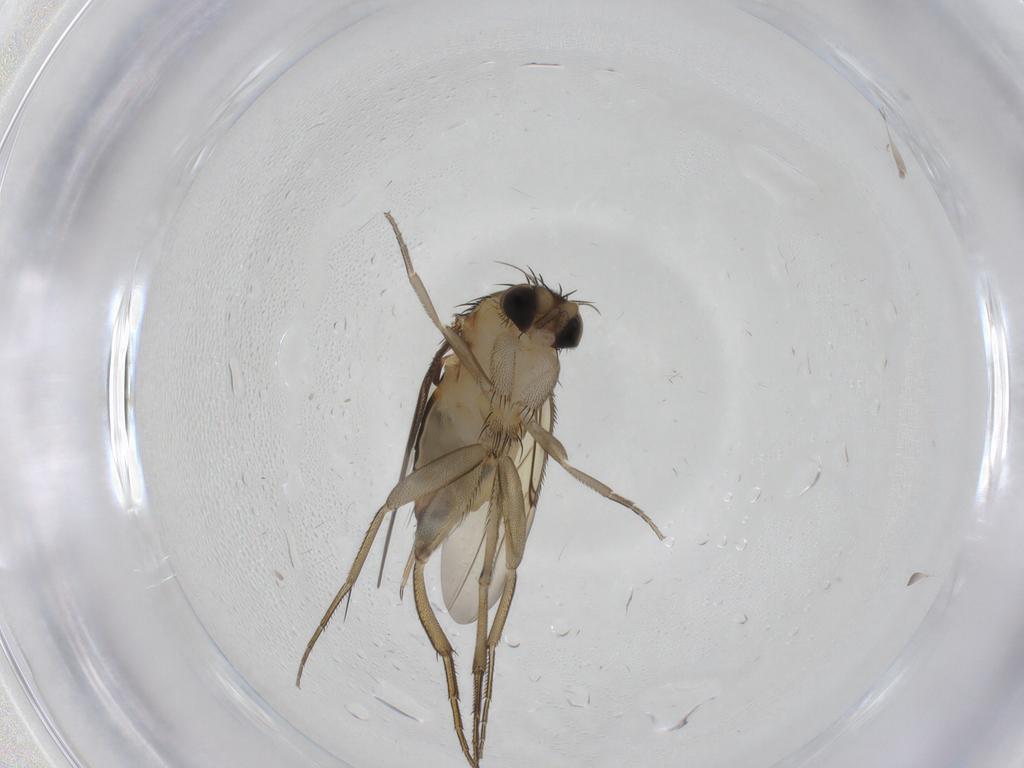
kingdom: Animalia
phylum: Arthropoda
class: Insecta
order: Diptera
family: Phoridae
